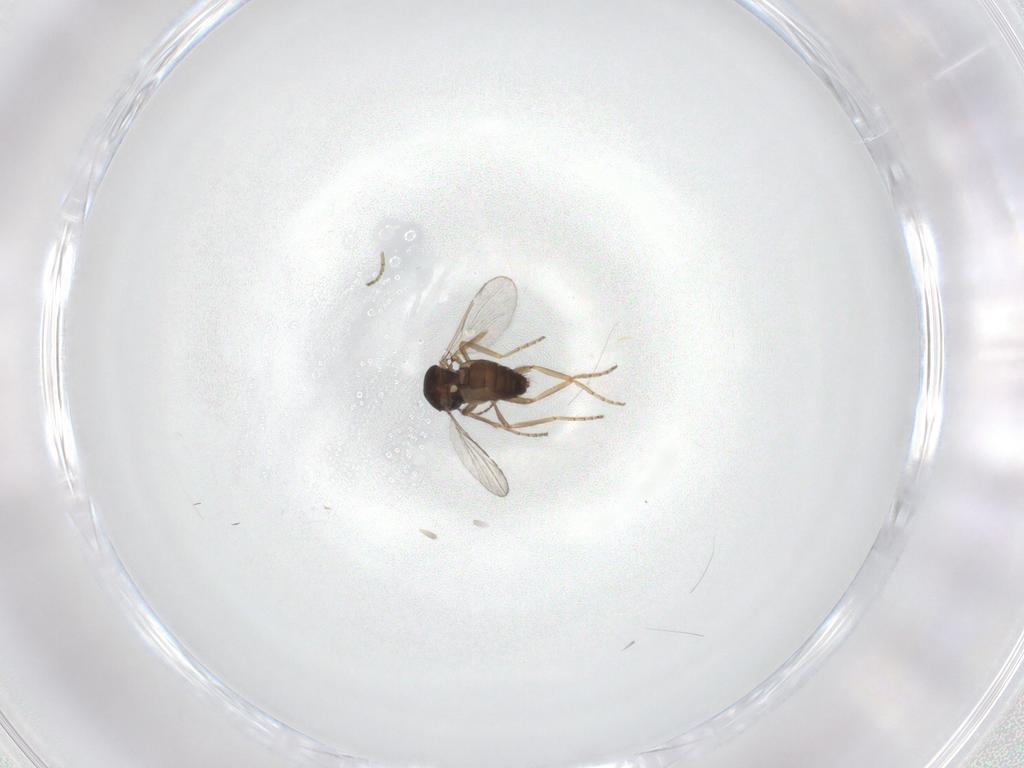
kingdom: Animalia
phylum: Arthropoda
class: Insecta
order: Diptera
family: Ceratopogonidae
